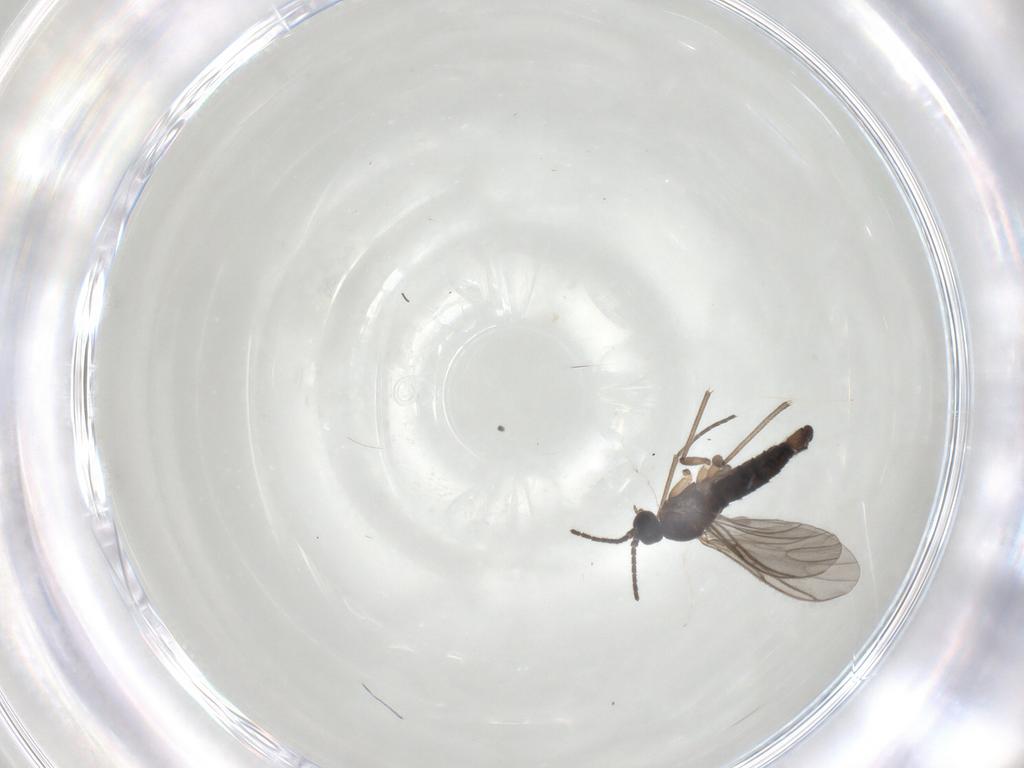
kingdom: Animalia
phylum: Arthropoda
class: Insecta
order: Diptera
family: Sciaridae
